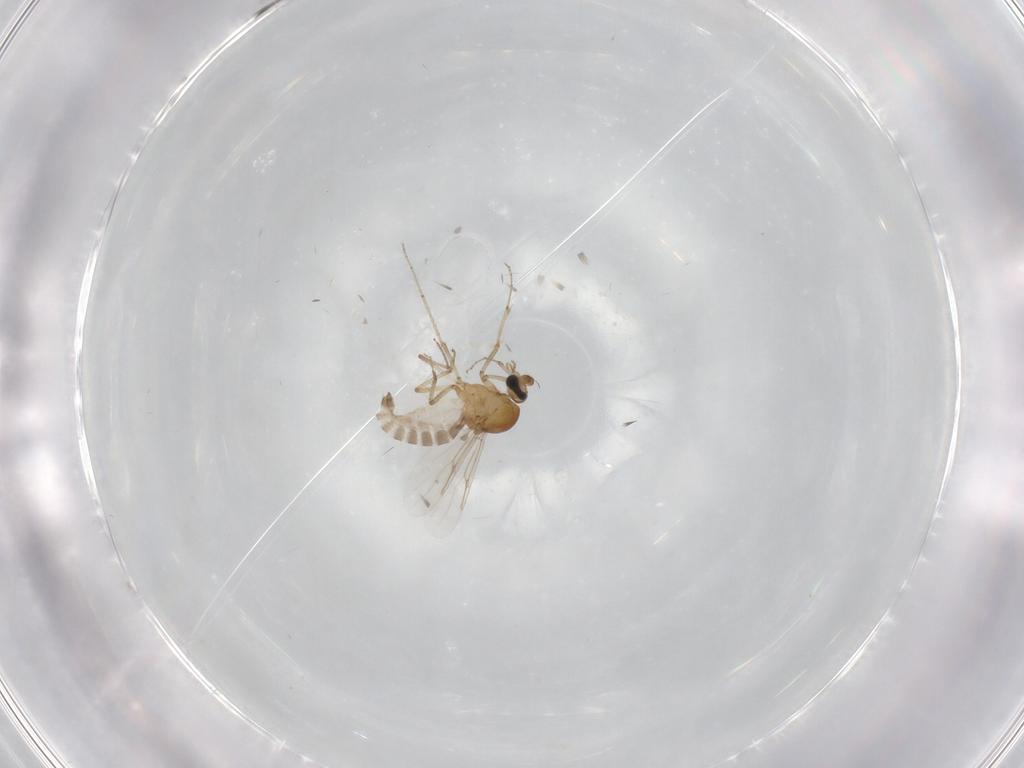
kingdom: Animalia
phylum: Arthropoda
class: Insecta
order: Diptera
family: Ceratopogonidae
